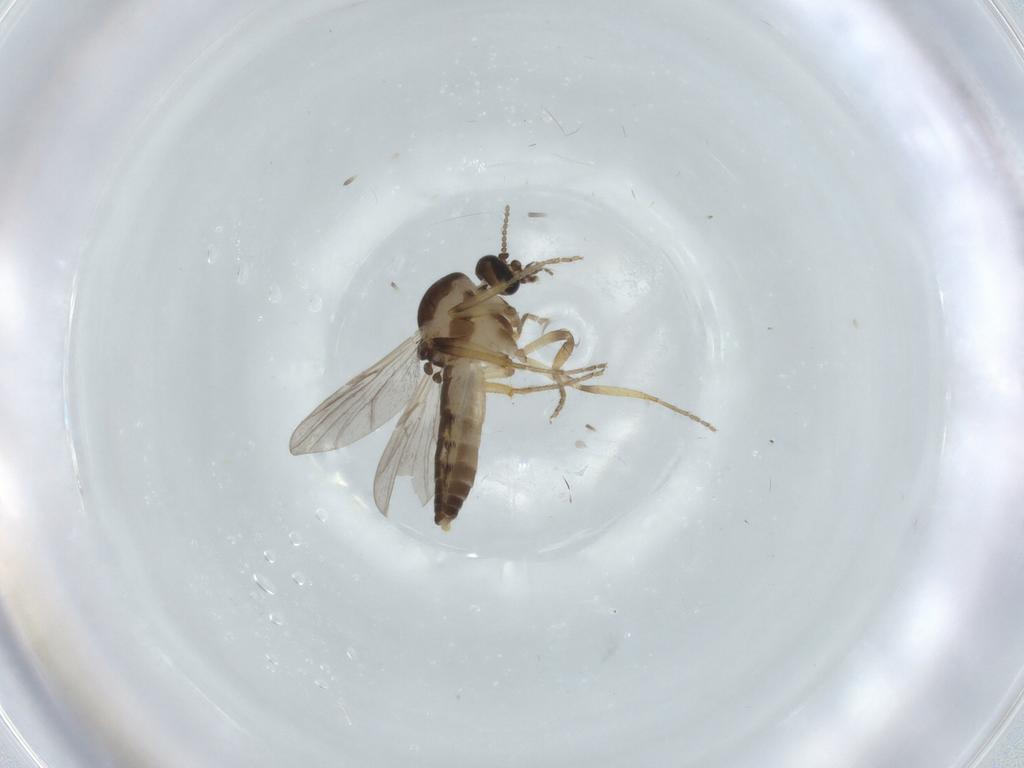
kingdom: Animalia
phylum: Arthropoda
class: Insecta
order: Diptera
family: Ceratopogonidae
